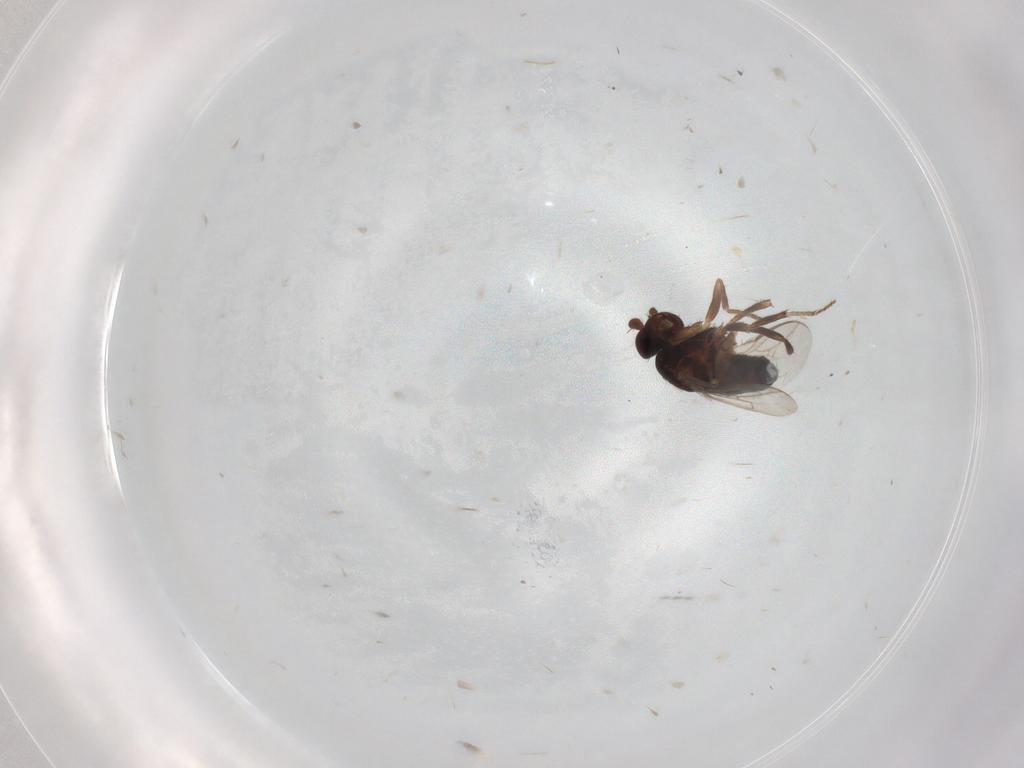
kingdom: Animalia
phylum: Arthropoda
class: Insecta
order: Diptera
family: Sphaeroceridae
